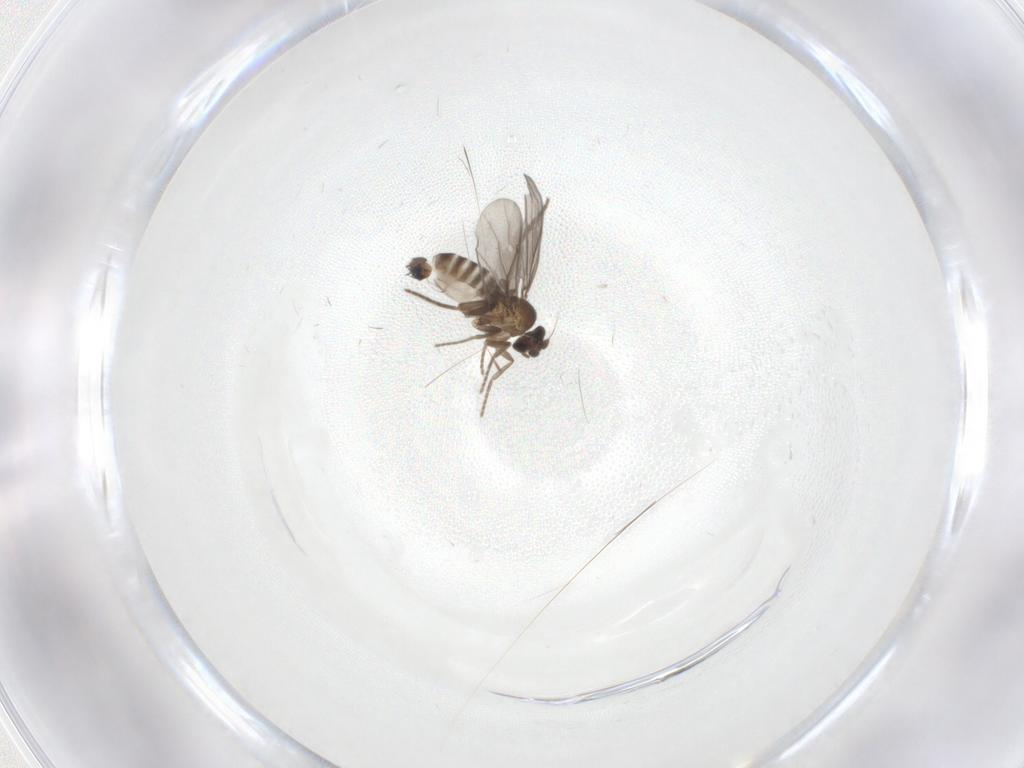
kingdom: Animalia
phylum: Arthropoda
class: Insecta
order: Diptera
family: Chironomidae
